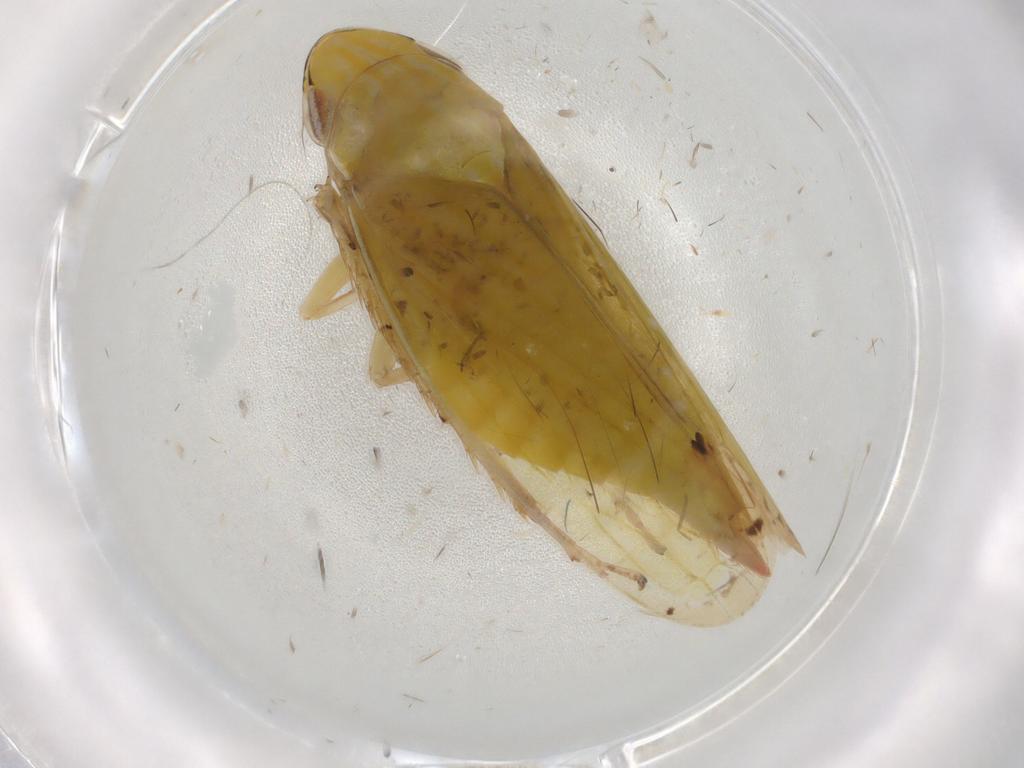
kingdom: Animalia
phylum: Arthropoda
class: Insecta
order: Hemiptera
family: Cicadellidae
